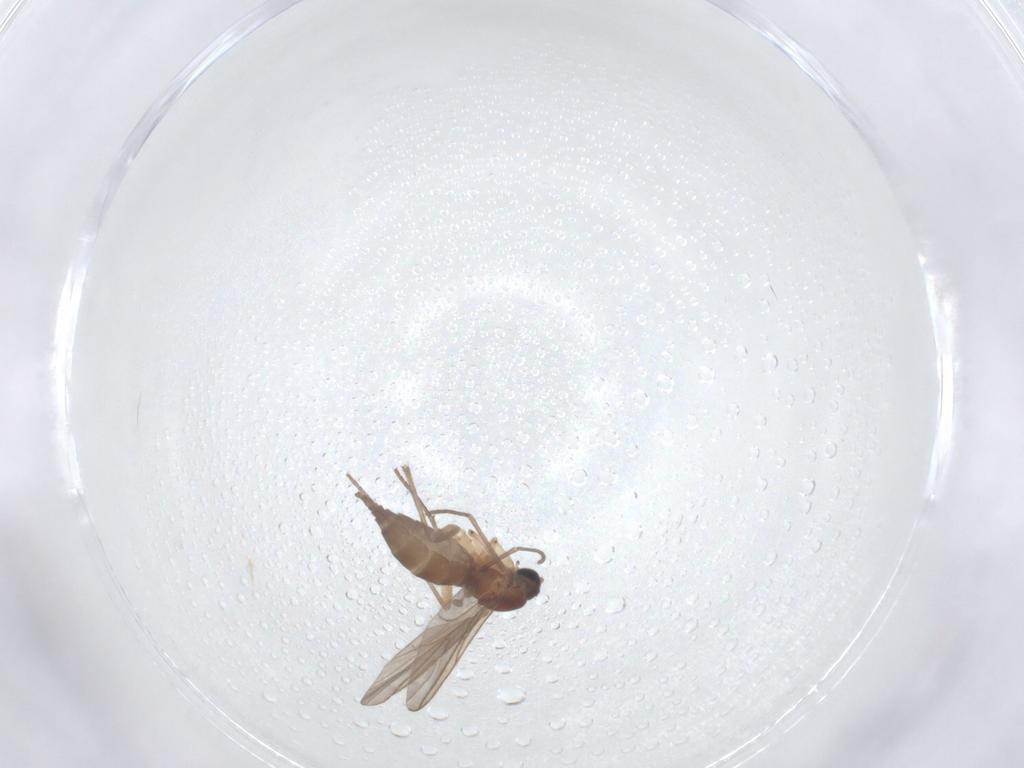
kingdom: Animalia
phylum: Arthropoda
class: Insecta
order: Diptera
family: Sciaridae
